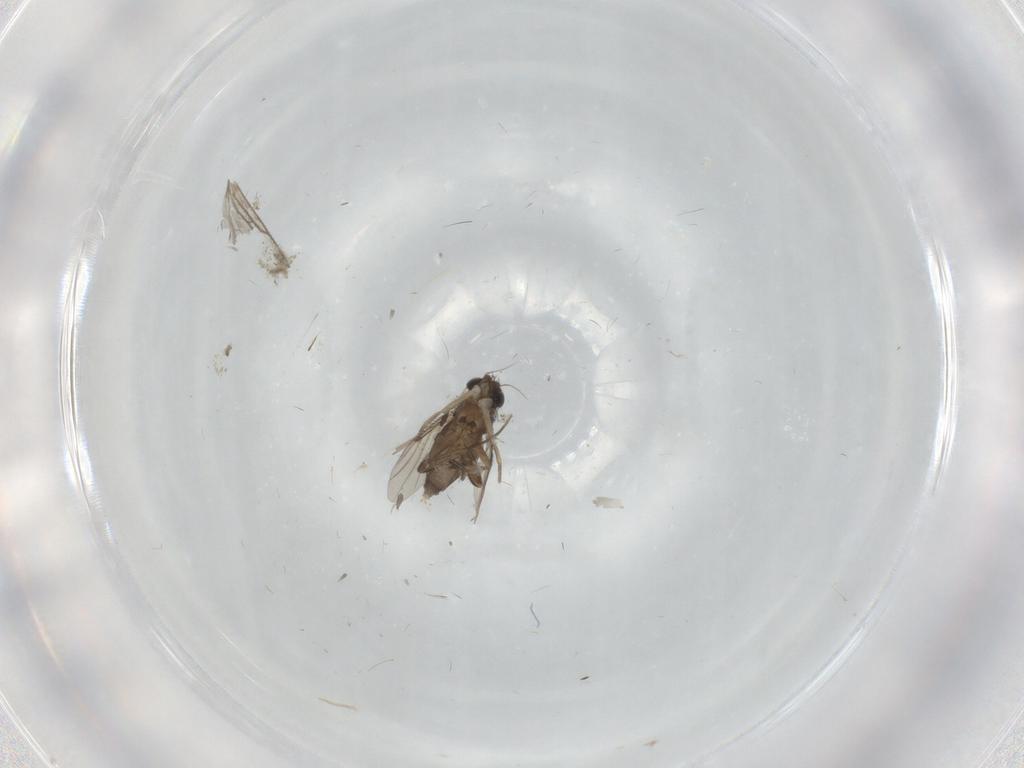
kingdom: Animalia
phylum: Arthropoda
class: Insecta
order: Diptera
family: Phoridae
